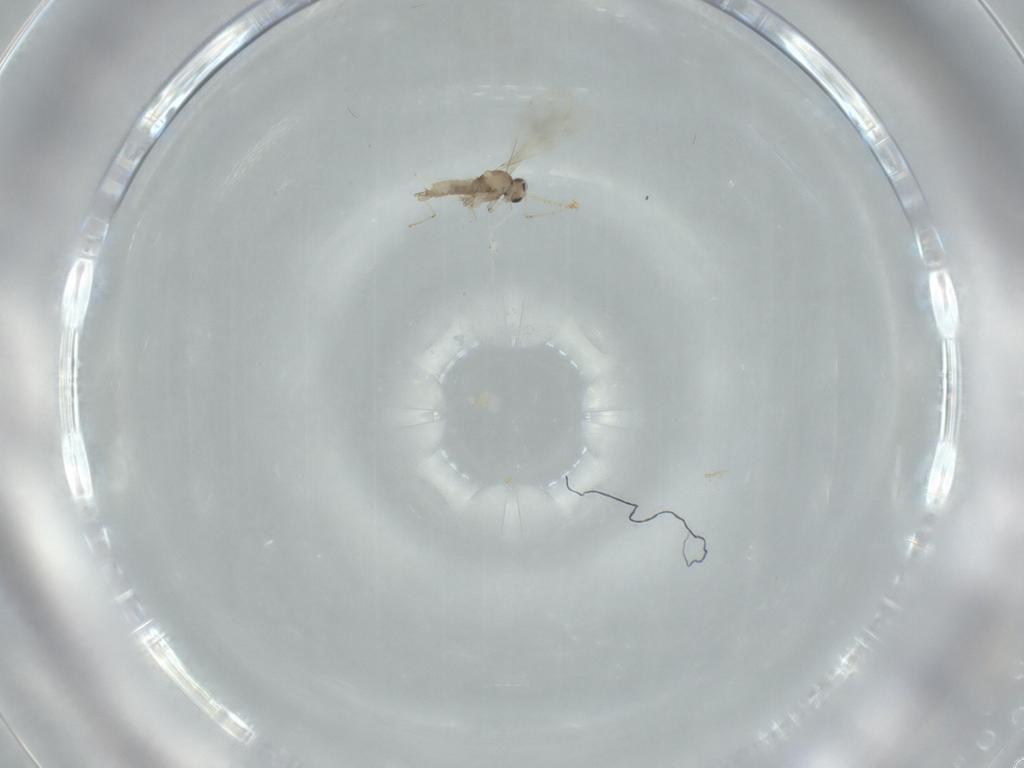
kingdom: Animalia
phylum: Arthropoda
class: Insecta
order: Diptera
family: Cecidomyiidae
